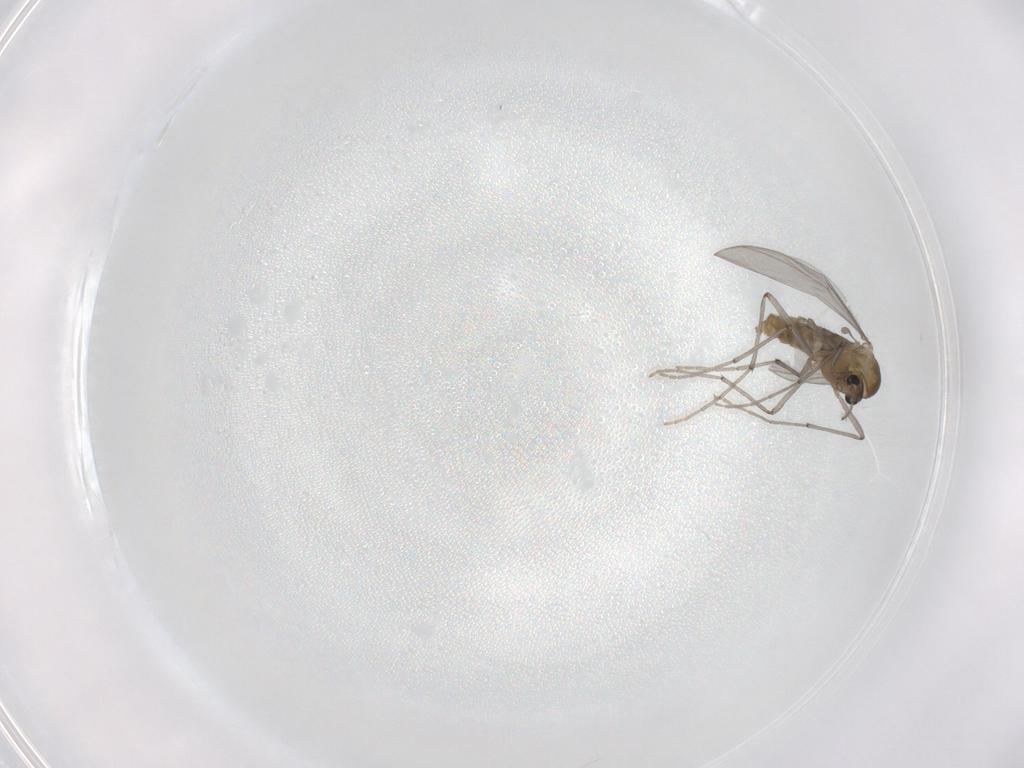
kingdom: Animalia
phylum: Arthropoda
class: Insecta
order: Diptera
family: Chironomidae
